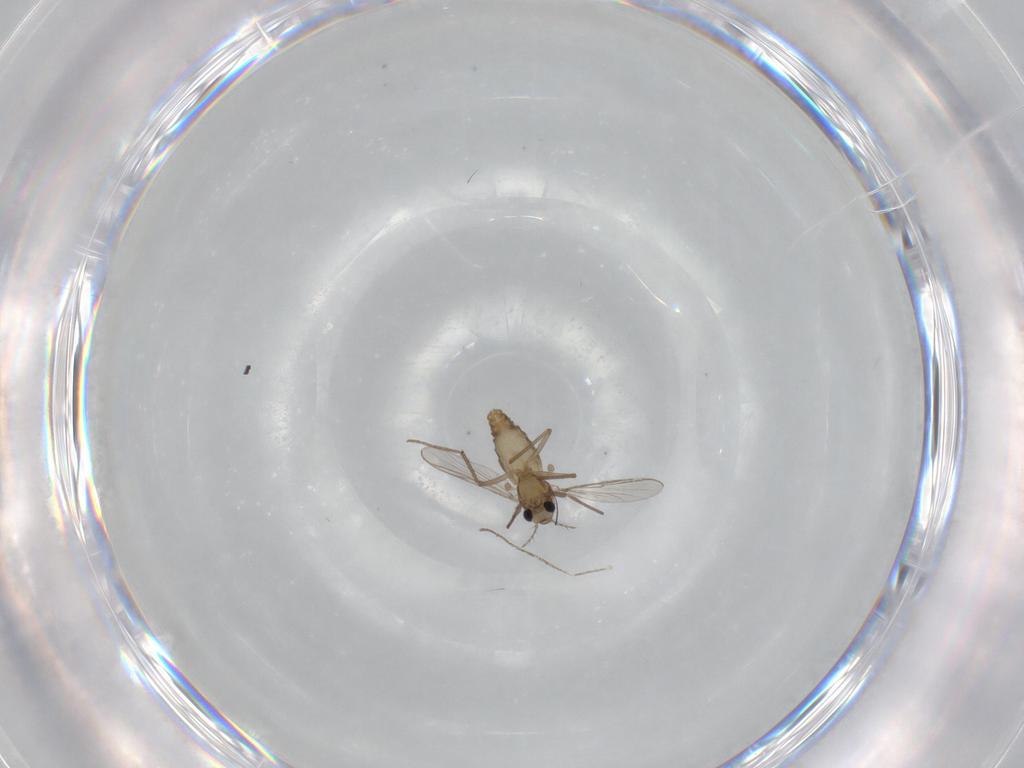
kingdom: Animalia
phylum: Arthropoda
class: Insecta
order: Diptera
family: Chironomidae
